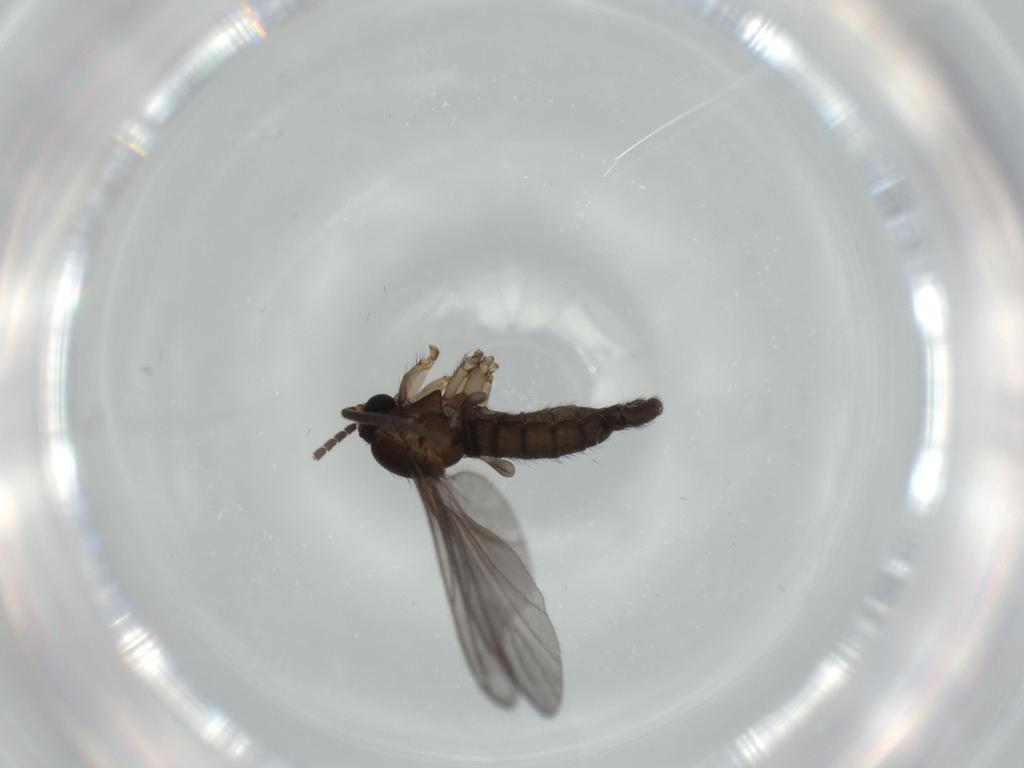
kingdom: Animalia
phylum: Arthropoda
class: Insecta
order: Diptera
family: Sciaridae
